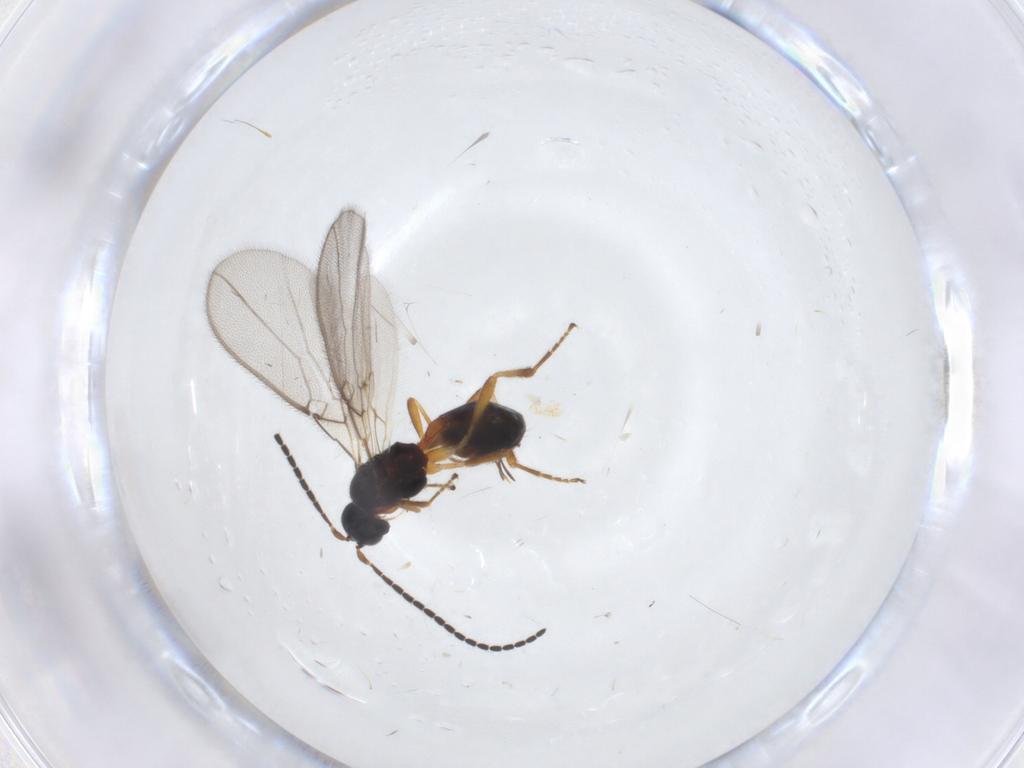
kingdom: Animalia
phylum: Arthropoda
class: Insecta
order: Hymenoptera
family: Braconidae
